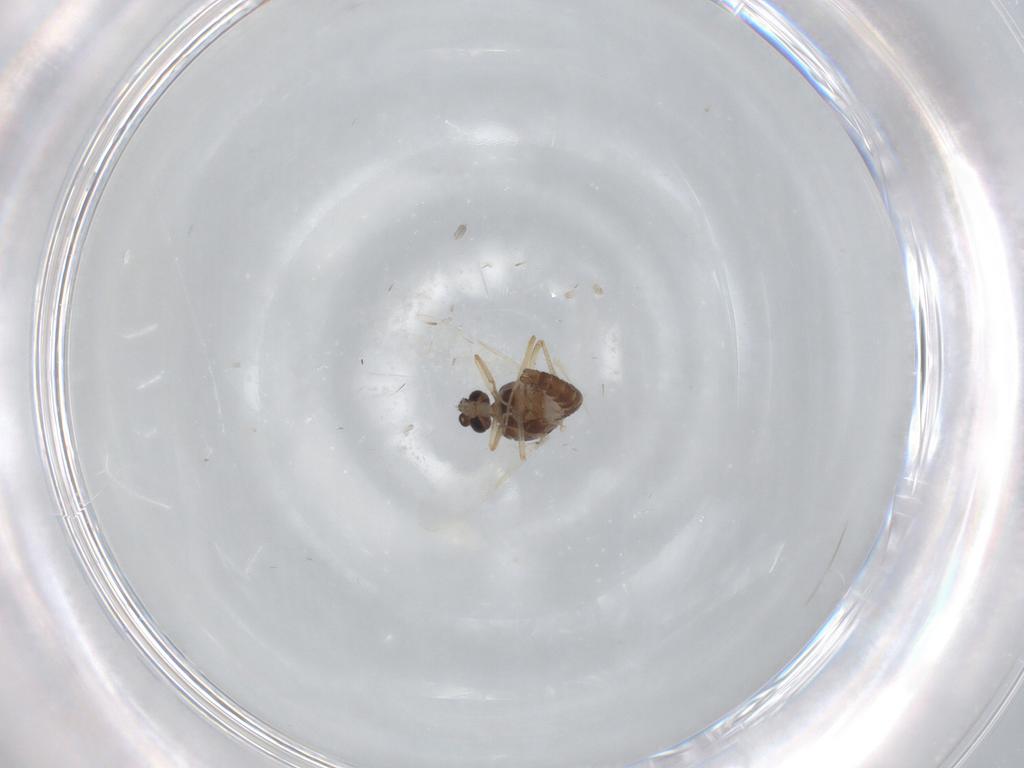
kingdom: Animalia
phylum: Arthropoda
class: Insecta
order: Diptera
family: Ceratopogonidae
